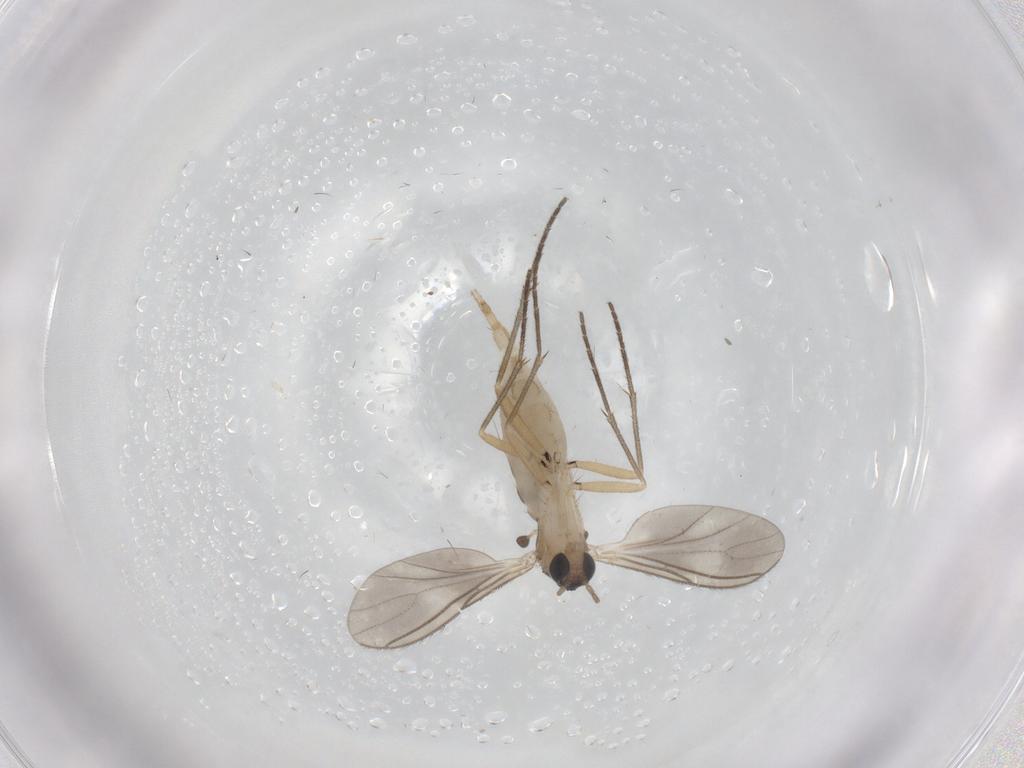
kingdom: Animalia
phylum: Arthropoda
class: Insecta
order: Diptera
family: Sciaridae
